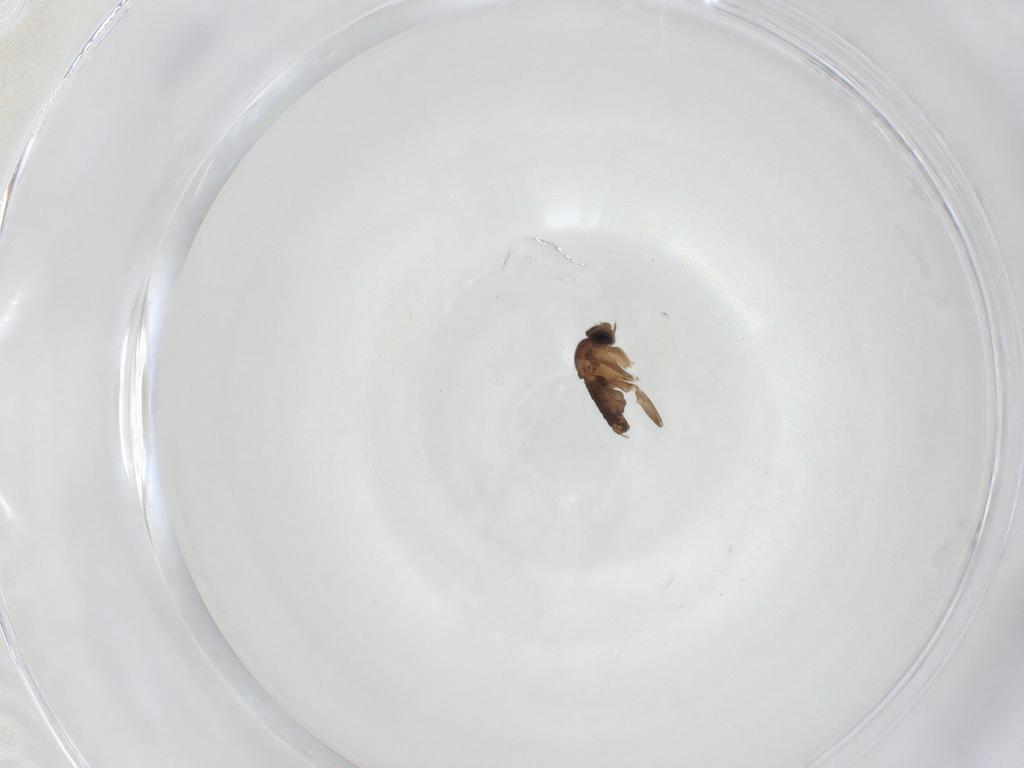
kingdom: Animalia
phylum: Arthropoda
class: Insecta
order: Diptera
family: Phoridae
